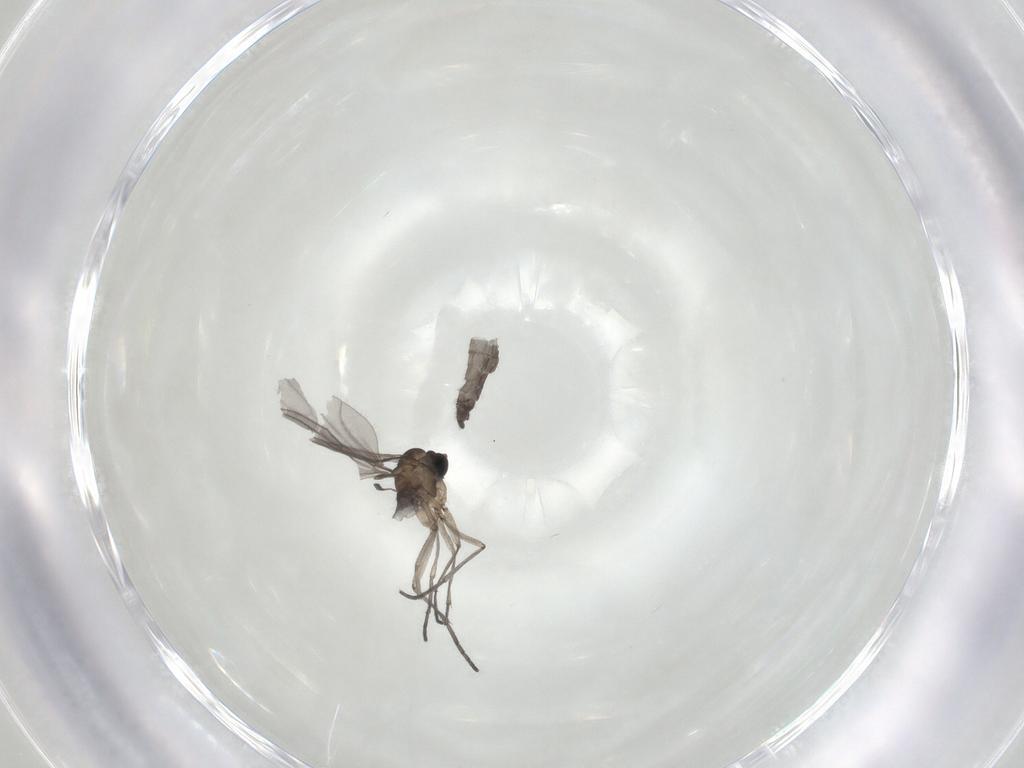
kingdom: Animalia
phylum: Arthropoda
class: Insecta
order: Diptera
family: Sciaridae
